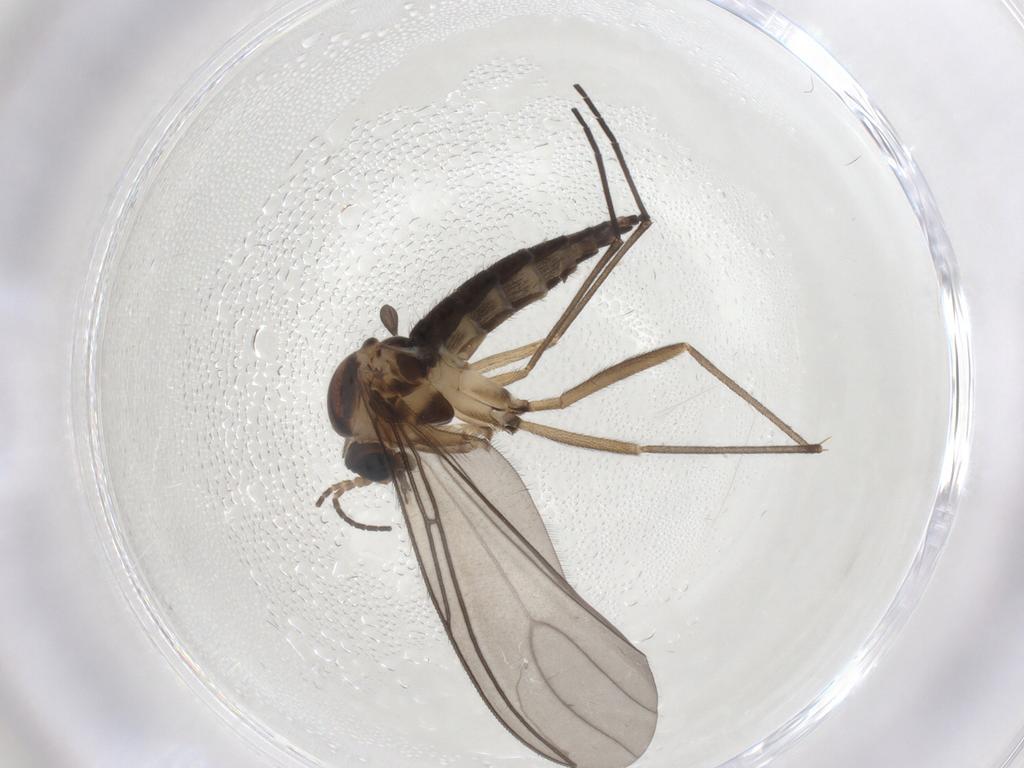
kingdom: Animalia
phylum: Arthropoda
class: Insecta
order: Diptera
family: Sciaridae
